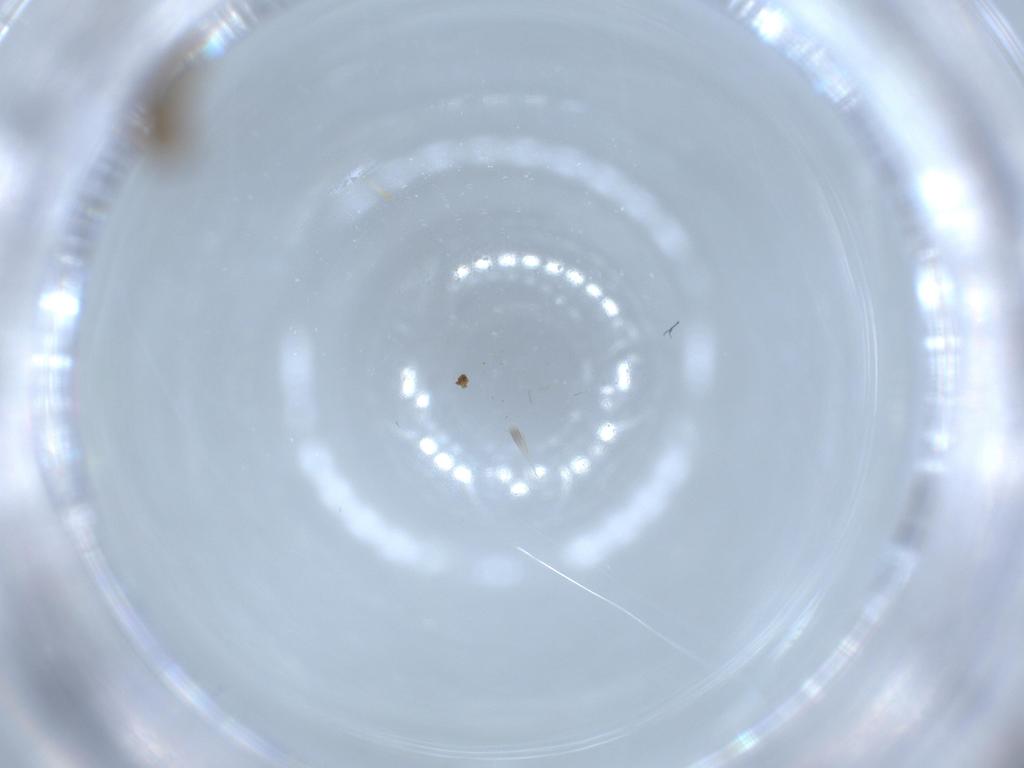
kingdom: Animalia
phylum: Arthropoda
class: Insecta
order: Diptera
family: Chironomidae
